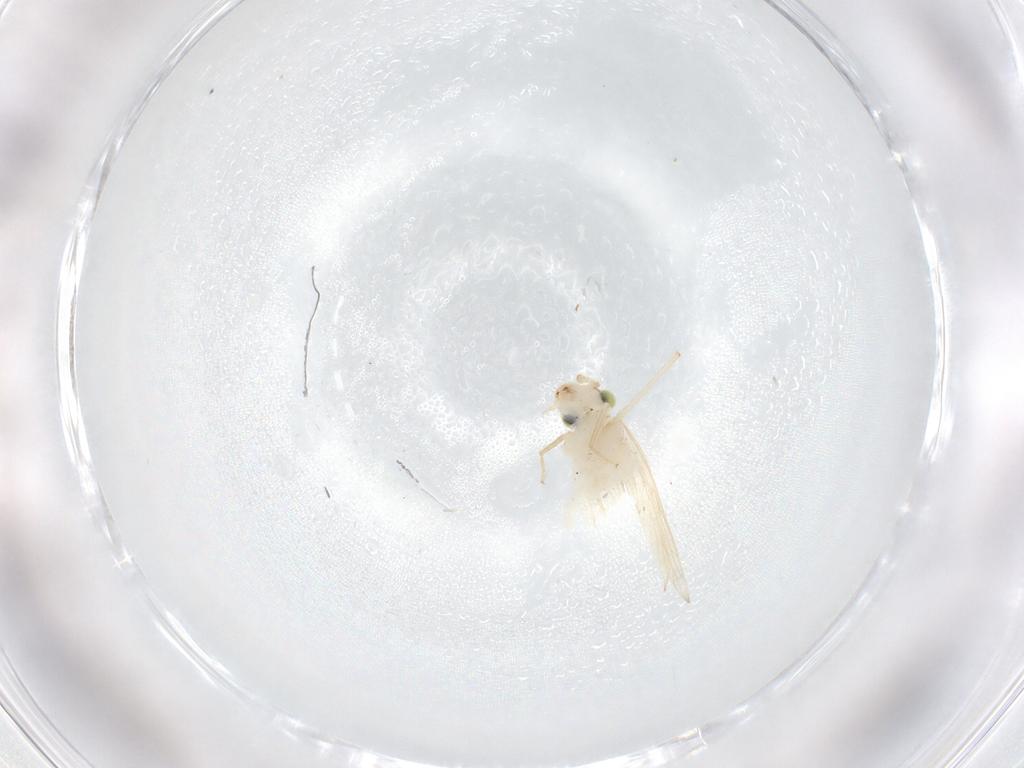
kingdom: Animalia
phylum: Arthropoda
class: Insecta
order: Psocodea
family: Lepidopsocidae
